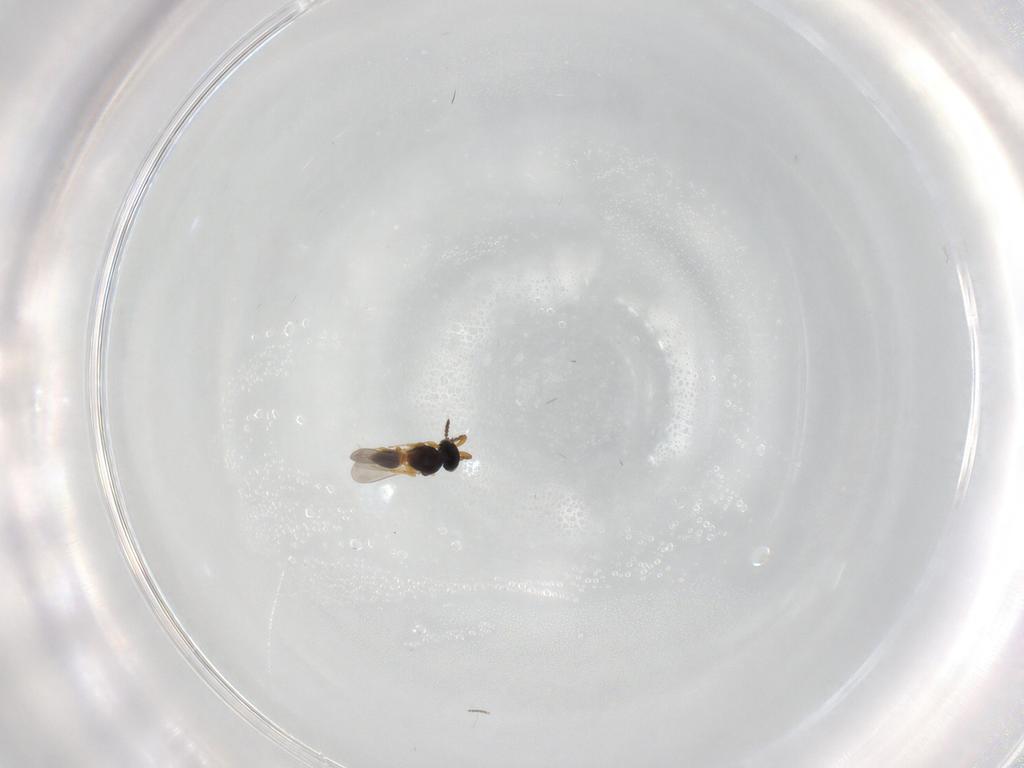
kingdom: Animalia
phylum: Arthropoda
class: Insecta
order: Hymenoptera
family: Platygastridae
